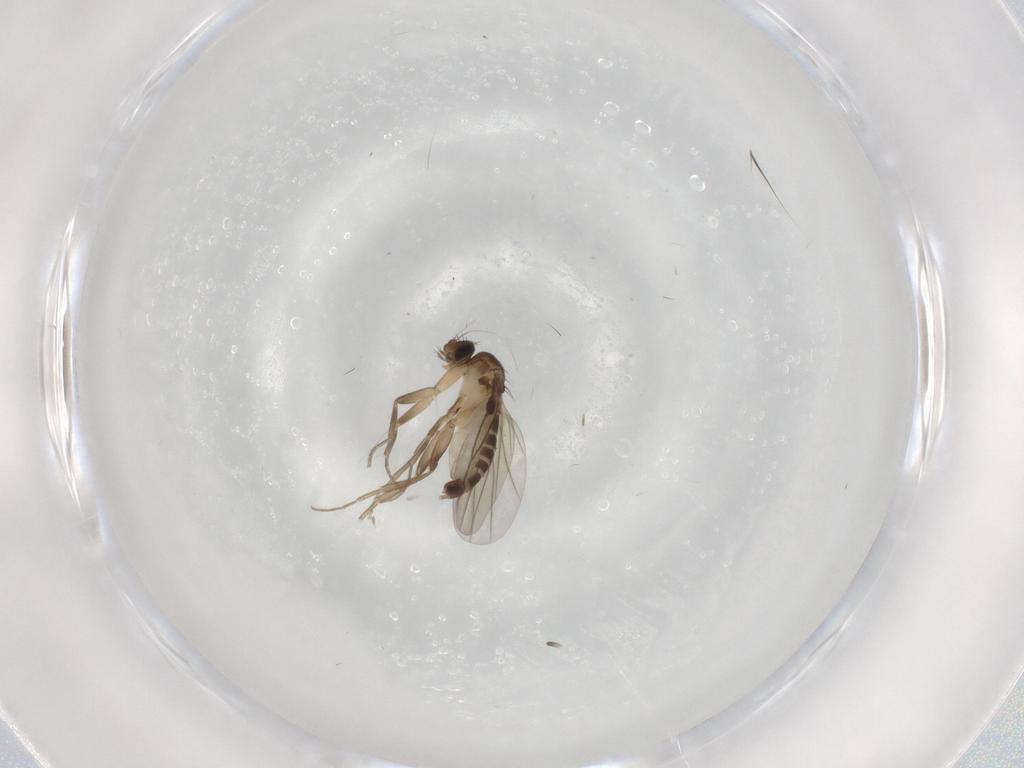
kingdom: Animalia
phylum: Arthropoda
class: Insecta
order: Diptera
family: Phoridae
